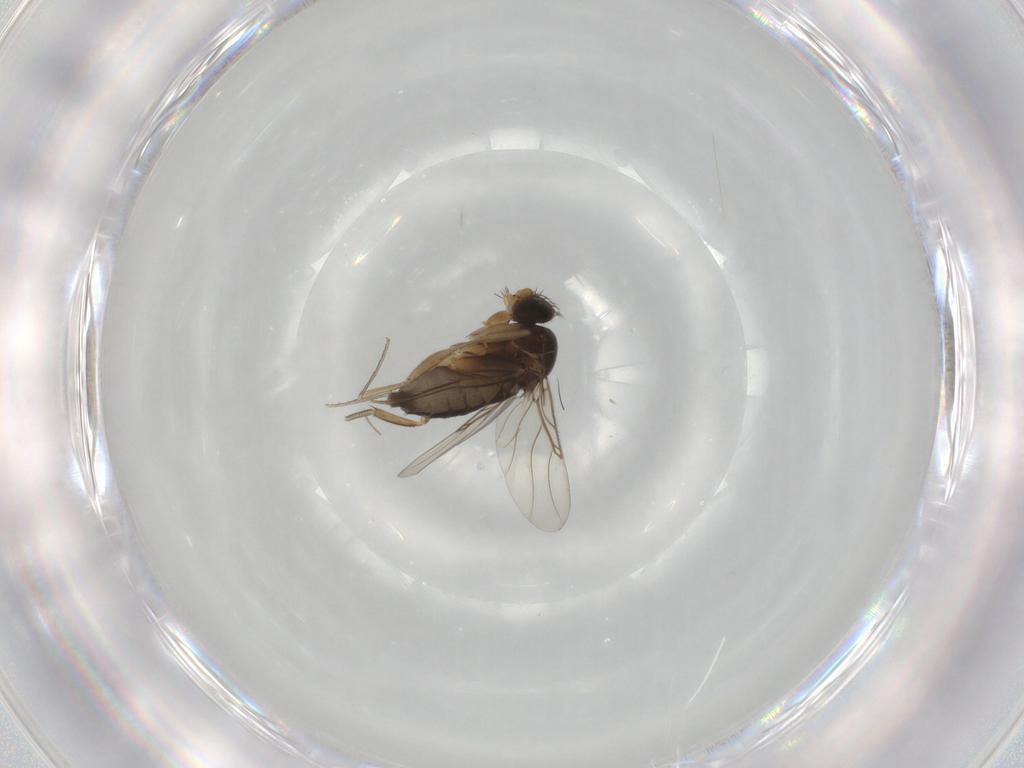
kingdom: Animalia
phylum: Arthropoda
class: Insecta
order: Diptera
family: Phoridae
